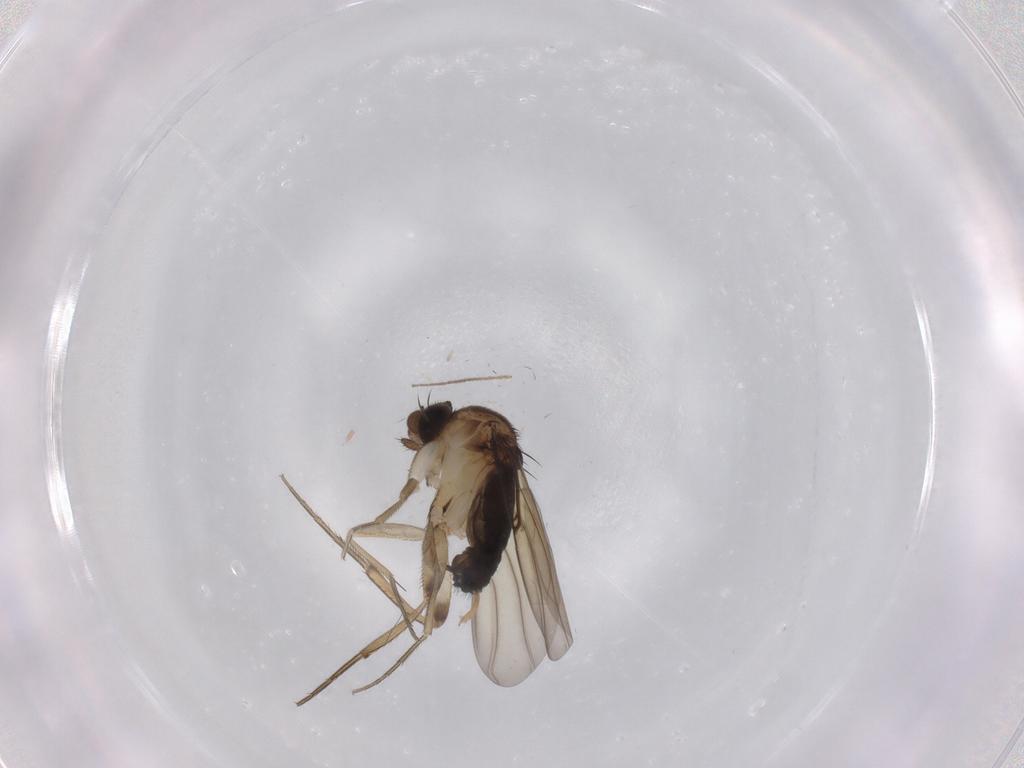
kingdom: Animalia
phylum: Arthropoda
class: Insecta
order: Diptera
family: Phoridae
